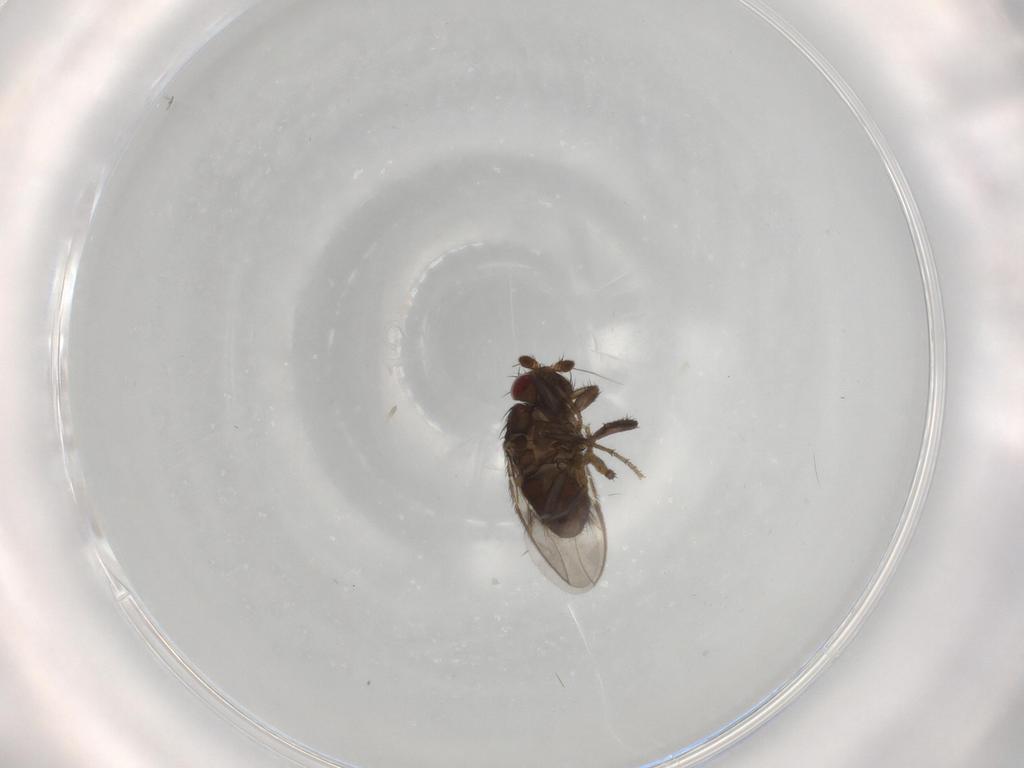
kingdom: Animalia
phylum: Arthropoda
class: Insecta
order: Diptera
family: Sphaeroceridae
